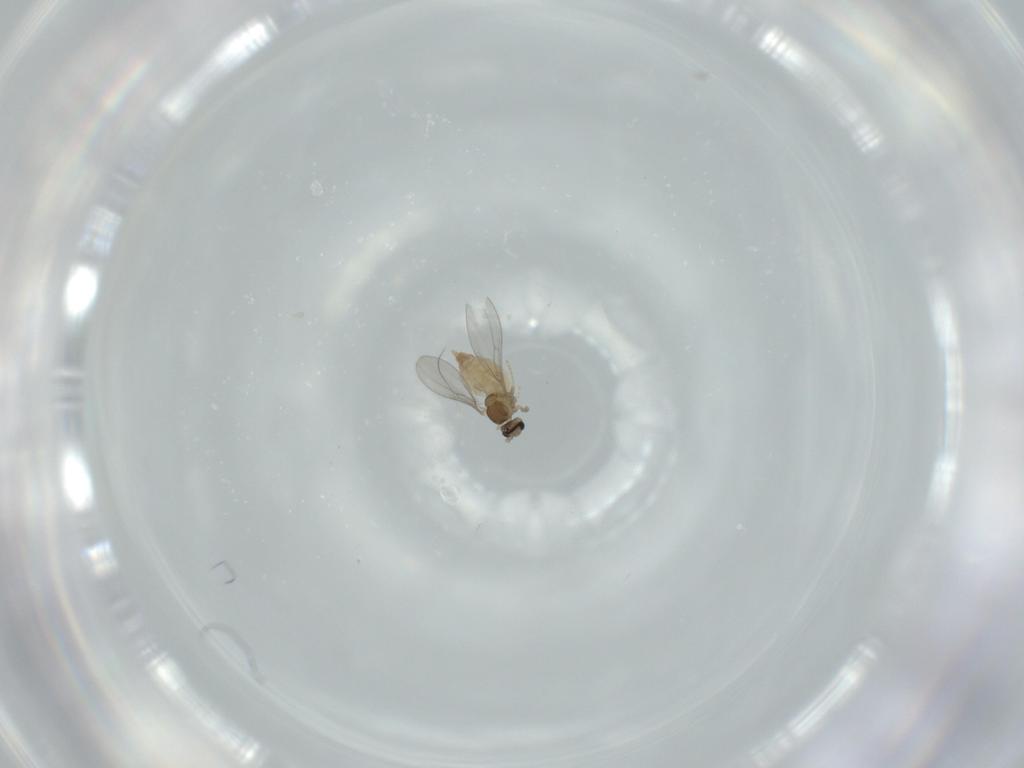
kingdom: Animalia
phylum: Arthropoda
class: Insecta
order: Diptera
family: Cecidomyiidae
